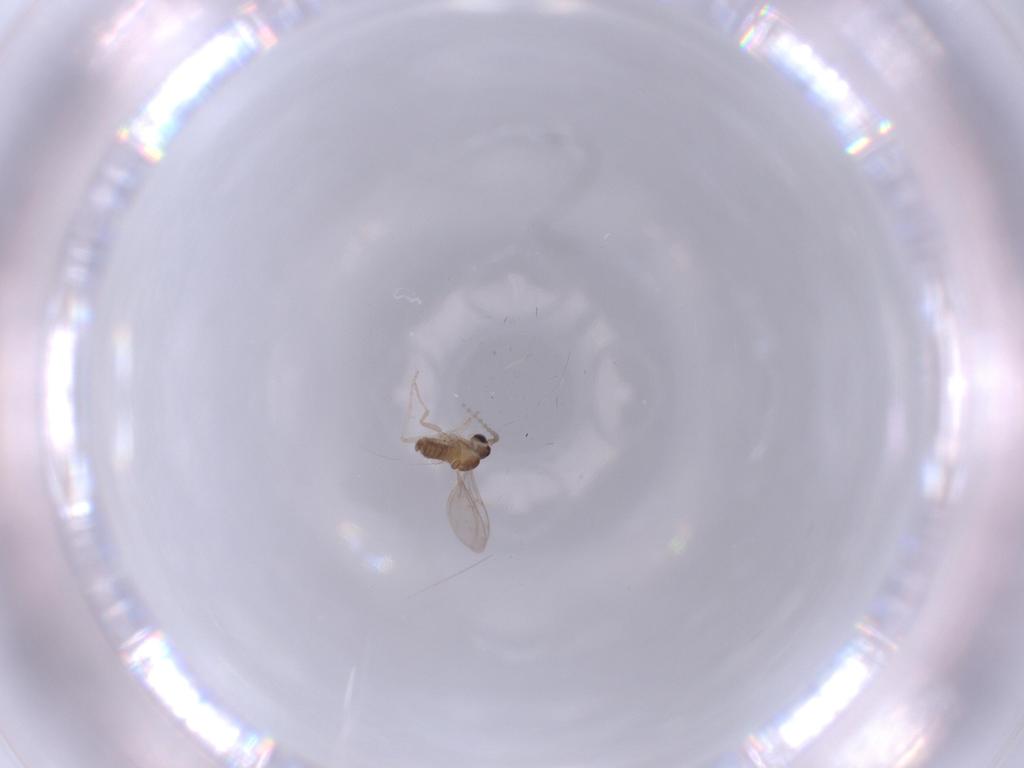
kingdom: Animalia
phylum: Arthropoda
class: Insecta
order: Diptera
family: Cecidomyiidae
